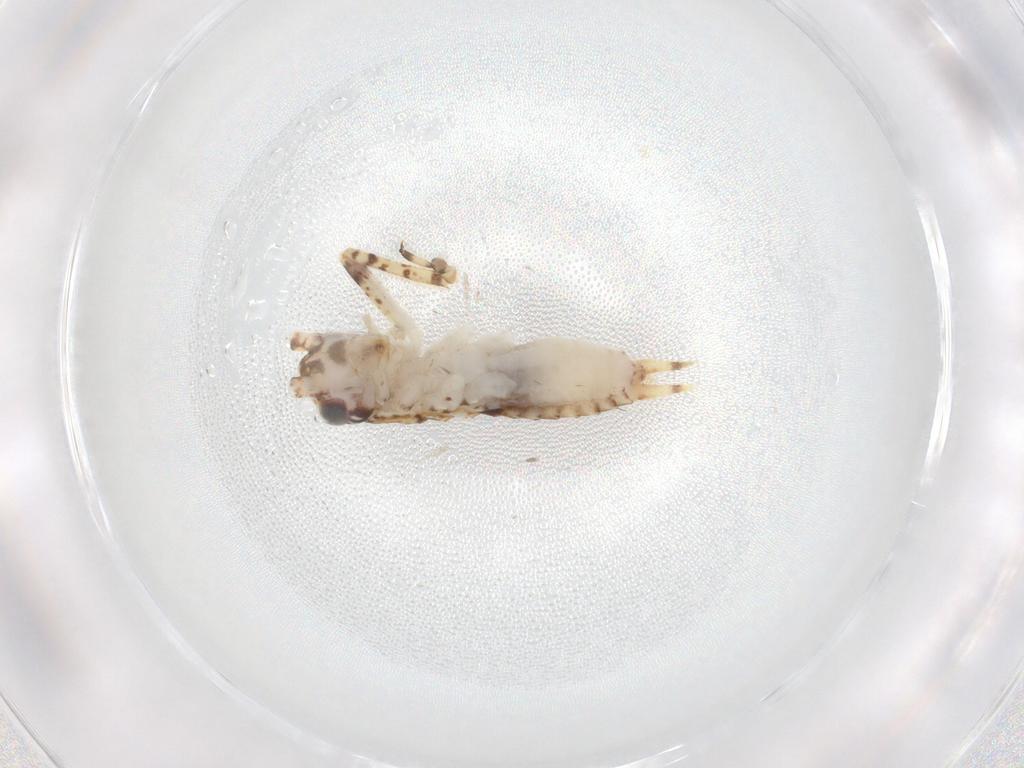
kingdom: Animalia
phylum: Arthropoda
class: Insecta
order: Orthoptera
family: Gryllidae
